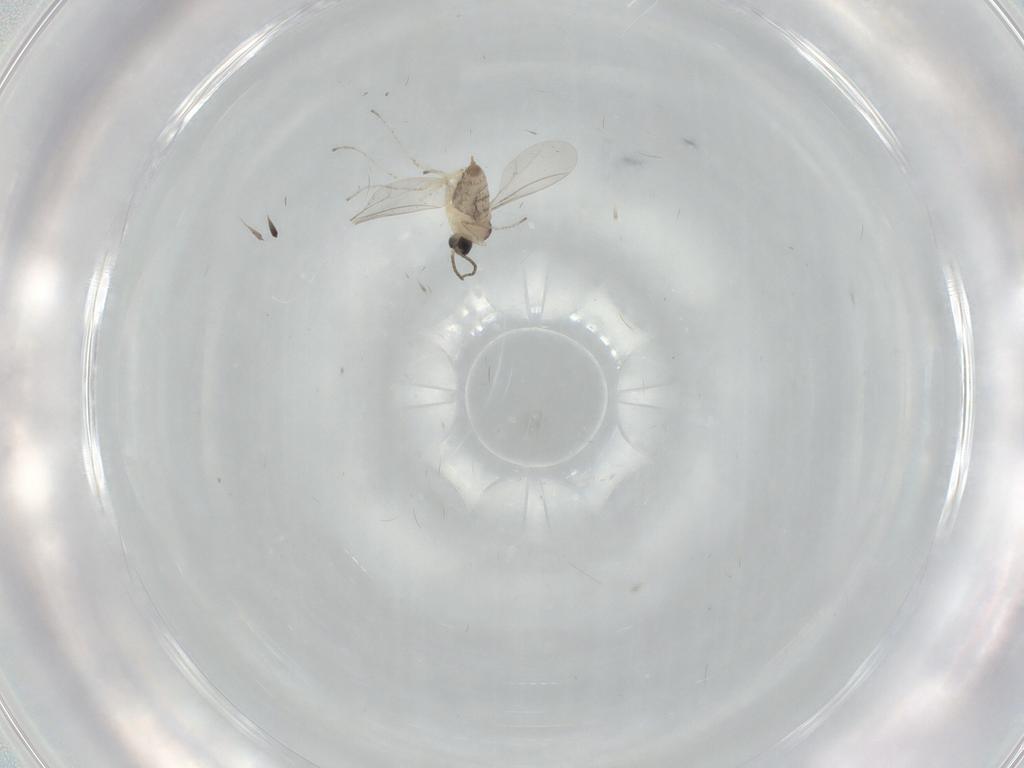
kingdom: Animalia
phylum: Arthropoda
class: Insecta
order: Diptera
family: Cecidomyiidae
